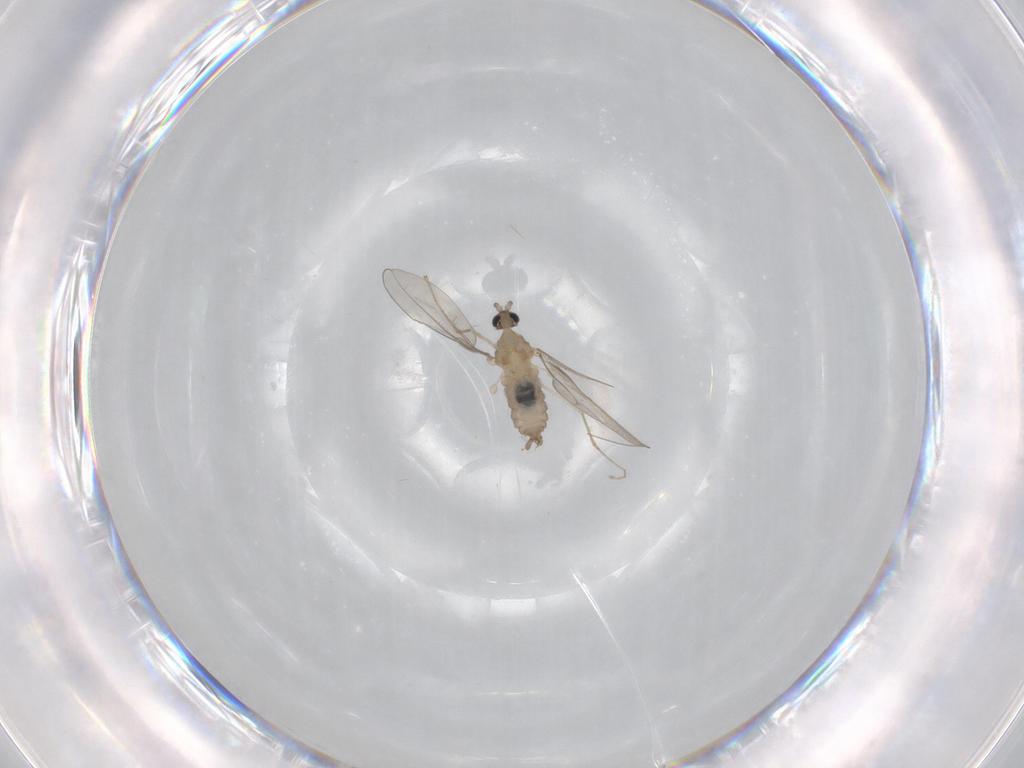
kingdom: Animalia
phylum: Arthropoda
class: Insecta
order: Diptera
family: Cecidomyiidae
